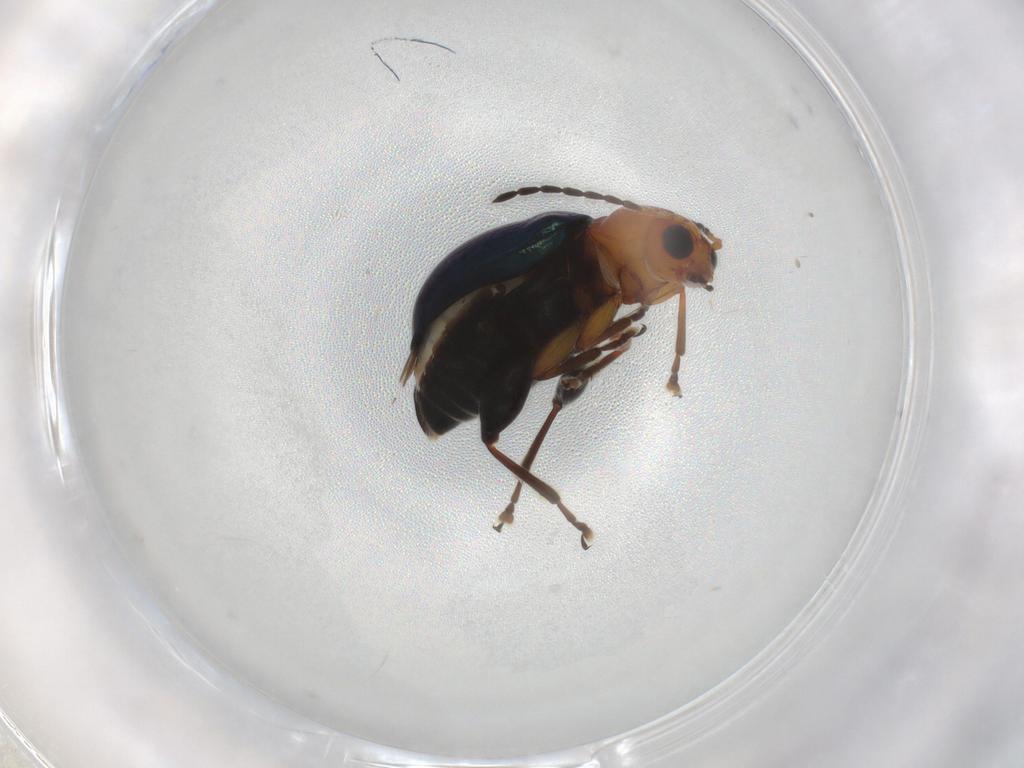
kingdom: Animalia
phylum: Arthropoda
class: Insecta
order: Coleoptera
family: Chrysomelidae
